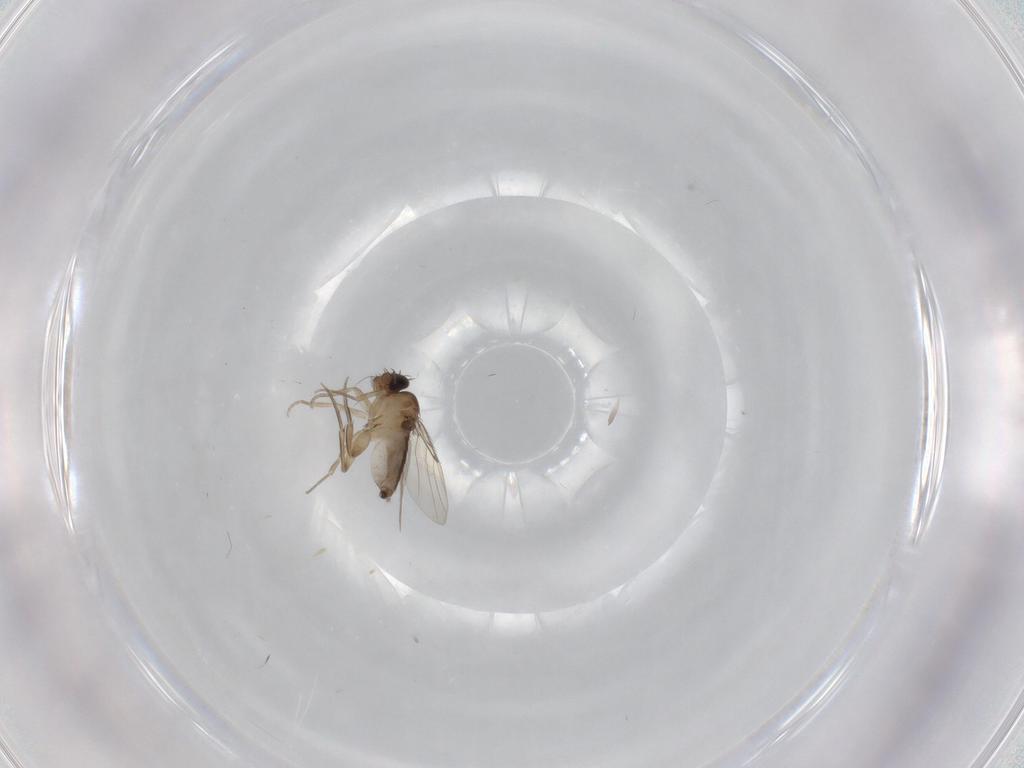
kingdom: Animalia
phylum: Arthropoda
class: Insecta
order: Diptera
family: Phoridae
